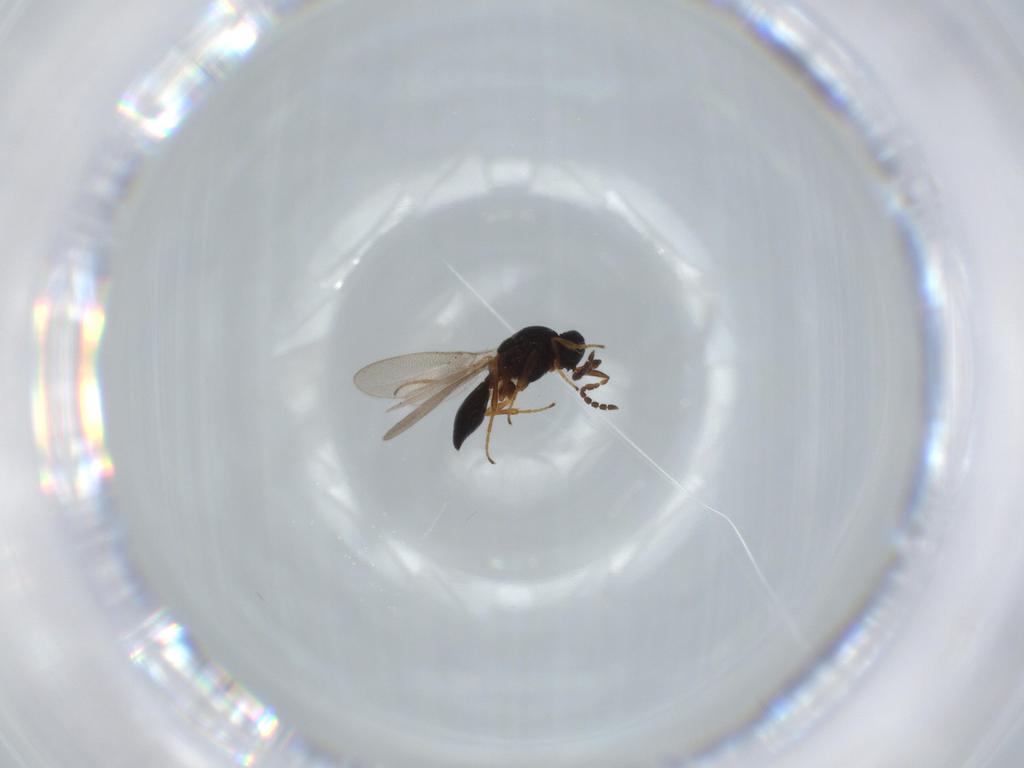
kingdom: Animalia
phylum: Arthropoda
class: Insecta
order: Hymenoptera
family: Platygastridae
